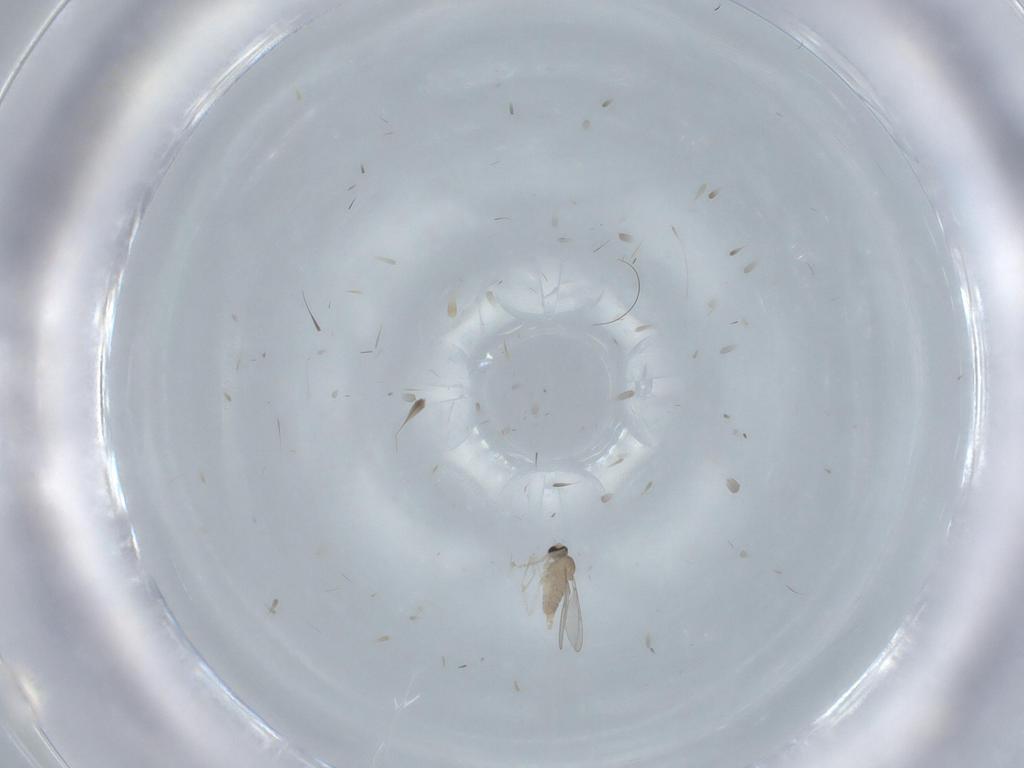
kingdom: Animalia
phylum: Arthropoda
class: Insecta
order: Diptera
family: Cecidomyiidae
